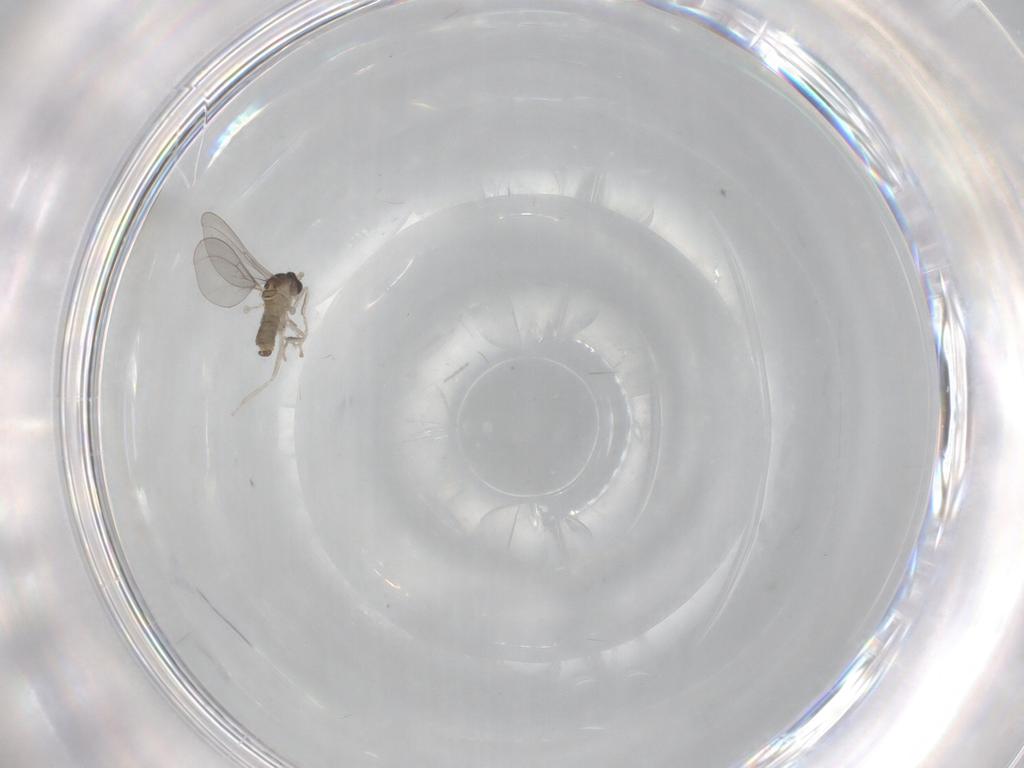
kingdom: Animalia
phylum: Arthropoda
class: Insecta
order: Diptera
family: Cecidomyiidae
